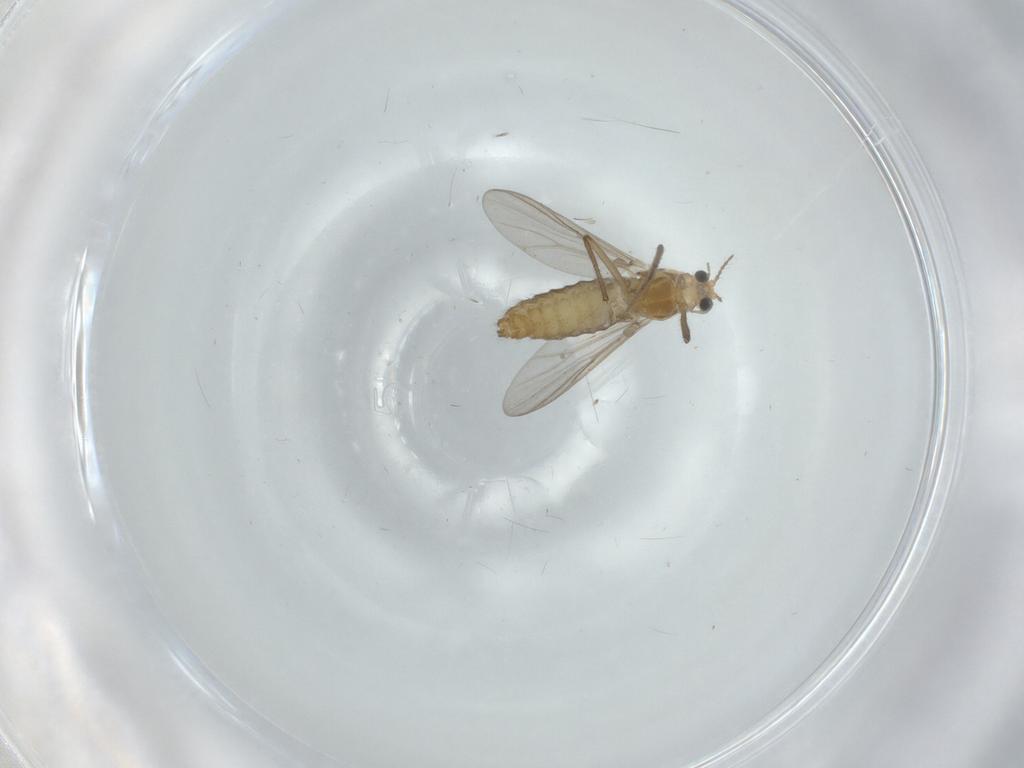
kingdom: Animalia
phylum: Arthropoda
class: Insecta
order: Diptera
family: Chironomidae
